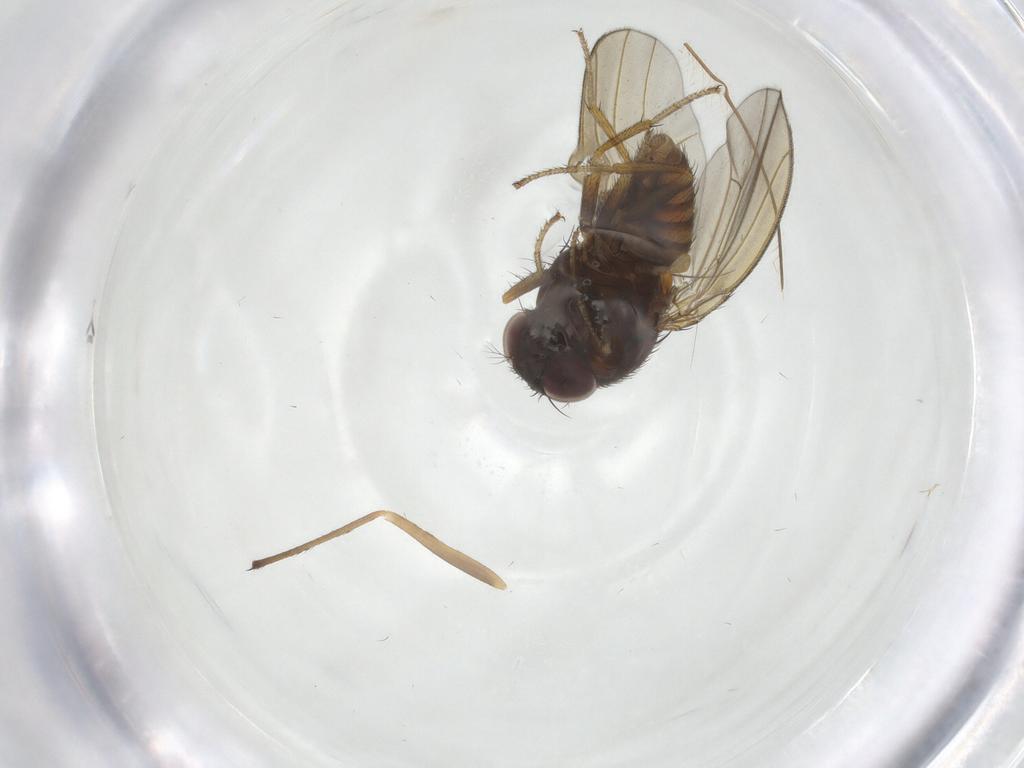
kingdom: Animalia
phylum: Arthropoda
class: Insecta
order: Diptera
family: Drosophilidae
